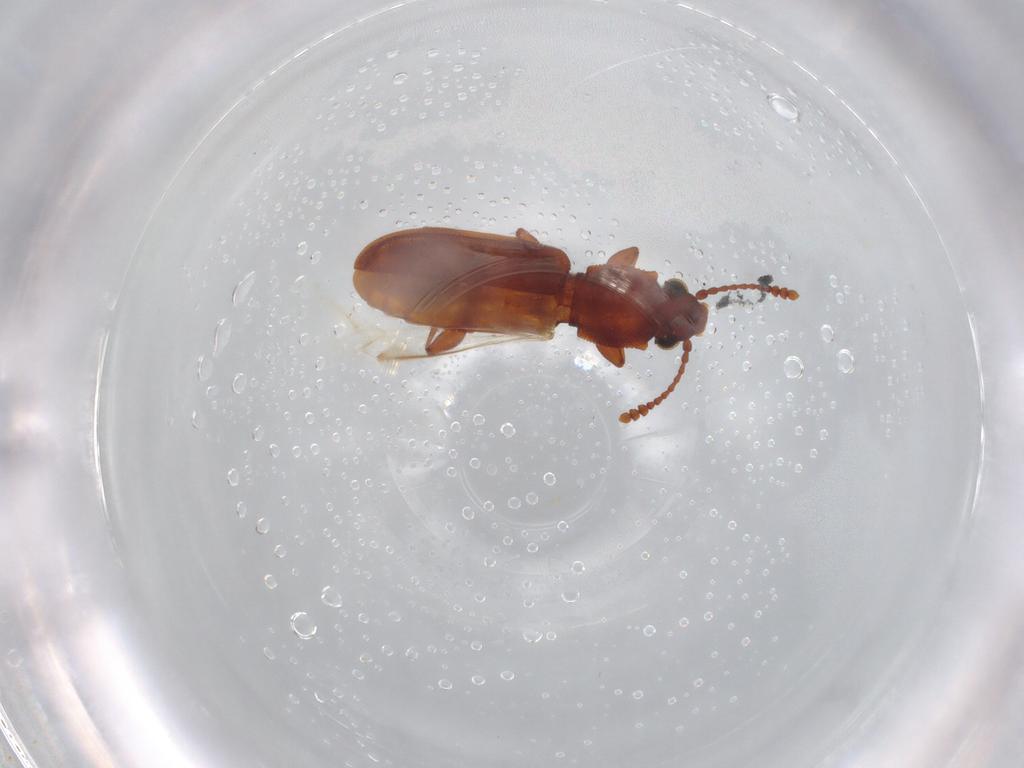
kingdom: Animalia
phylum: Arthropoda
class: Insecta
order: Coleoptera
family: Silvanidae
